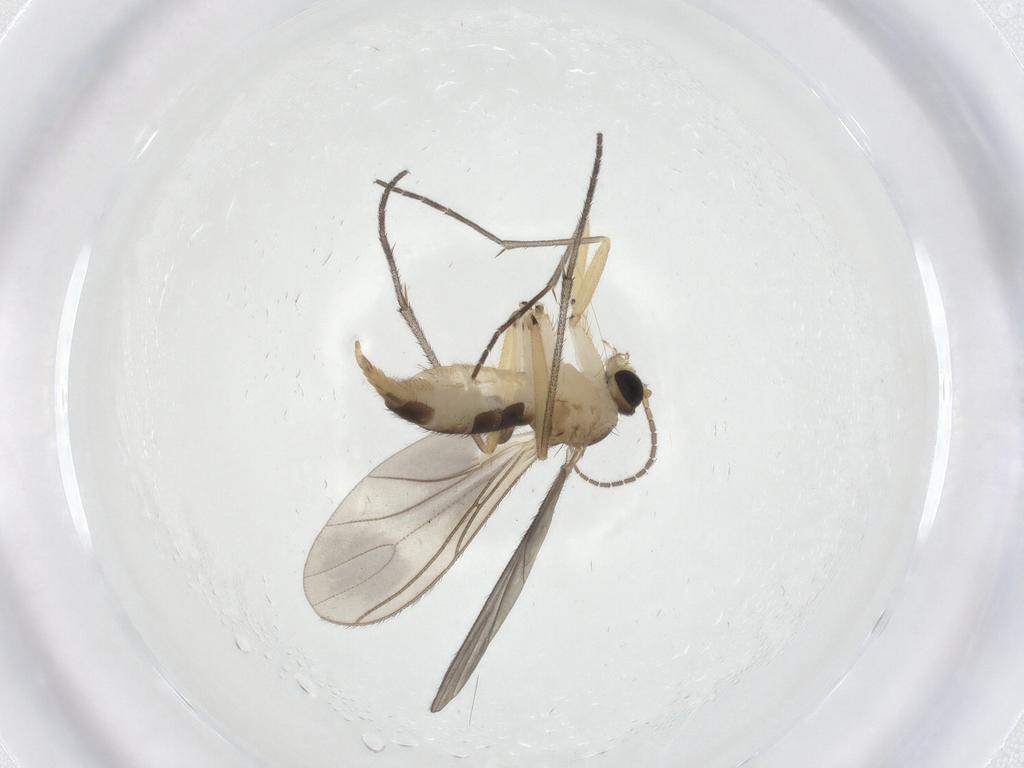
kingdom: Animalia
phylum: Arthropoda
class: Insecta
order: Diptera
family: Sciaridae
